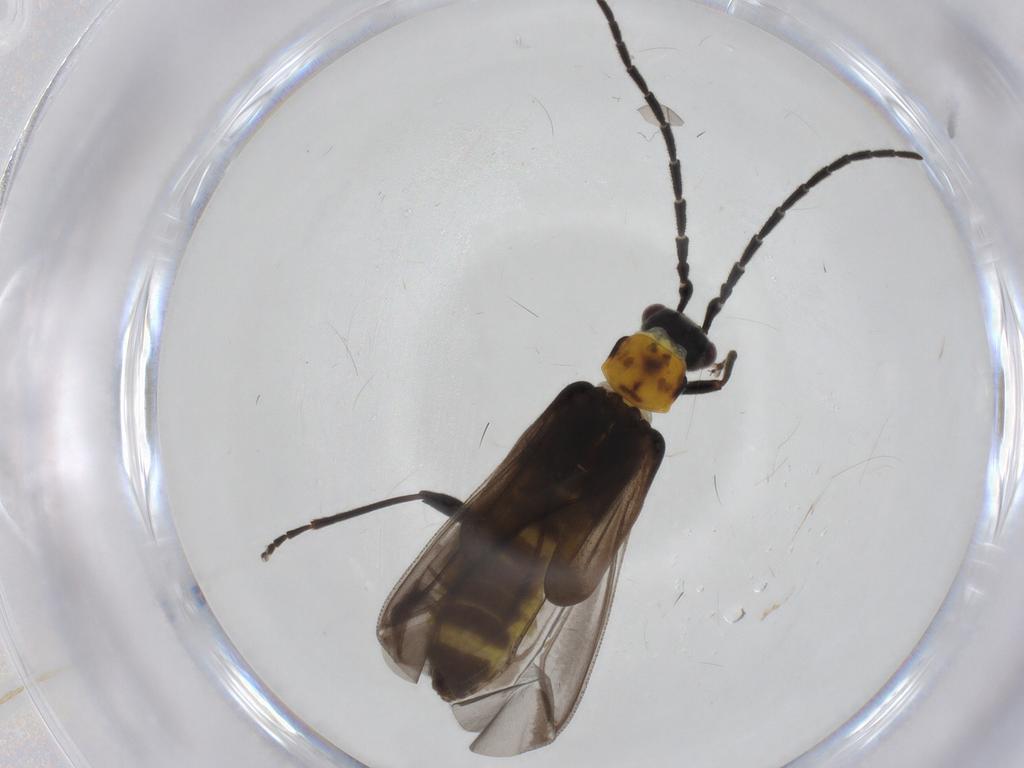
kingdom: Animalia
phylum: Arthropoda
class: Insecta
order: Coleoptera
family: Cantharidae
